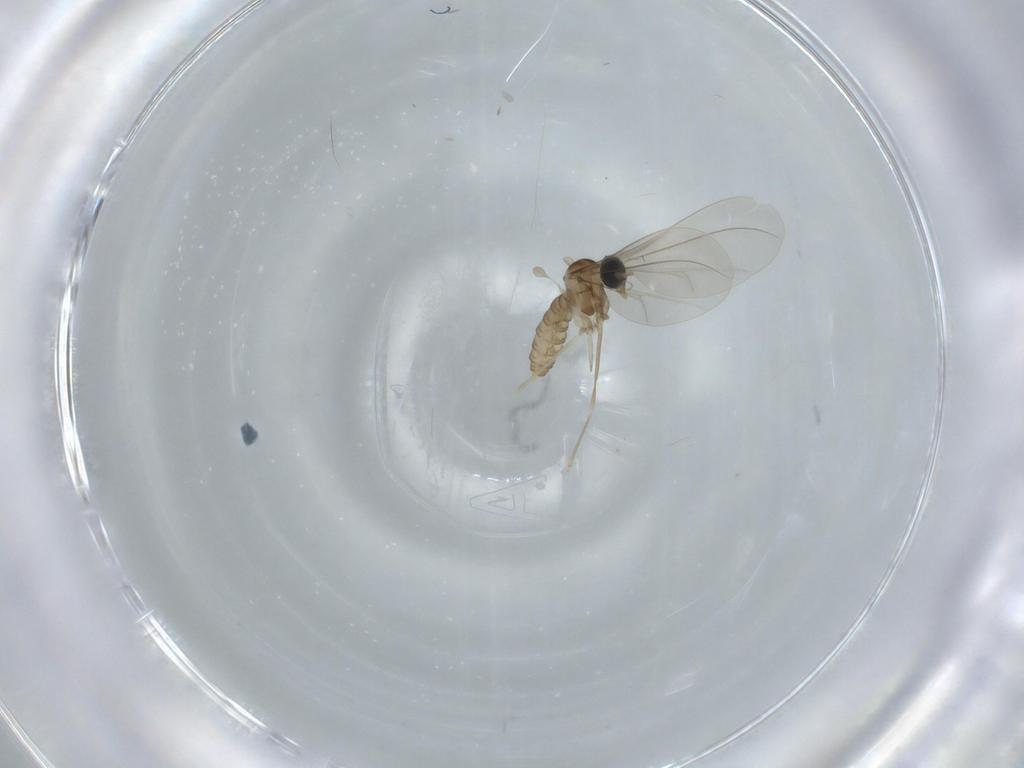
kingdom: Animalia
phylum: Arthropoda
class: Insecta
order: Diptera
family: Cecidomyiidae
